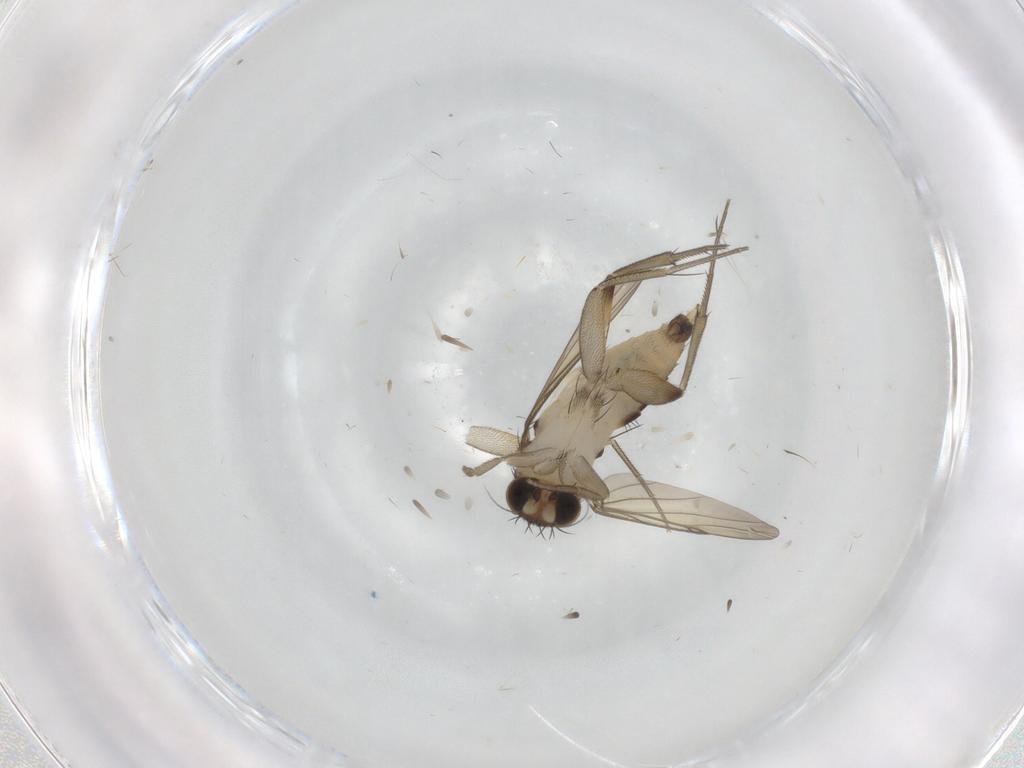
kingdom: Animalia
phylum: Arthropoda
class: Insecta
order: Diptera
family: Phoridae
